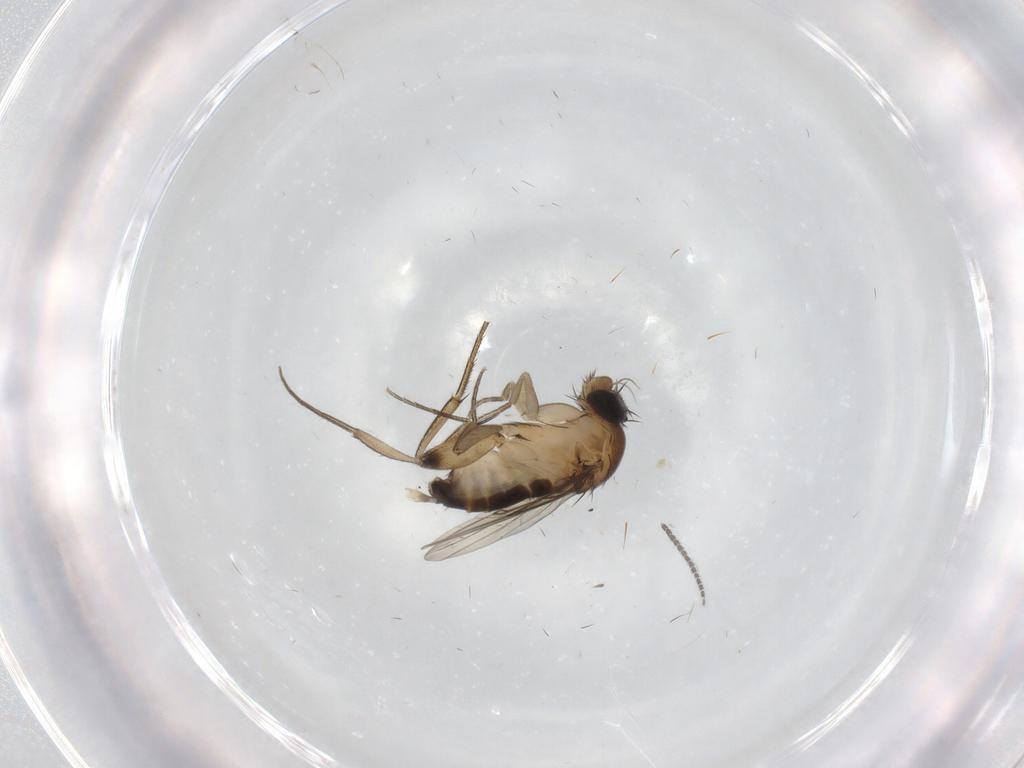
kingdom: Animalia
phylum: Arthropoda
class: Insecta
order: Diptera
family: Phoridae
